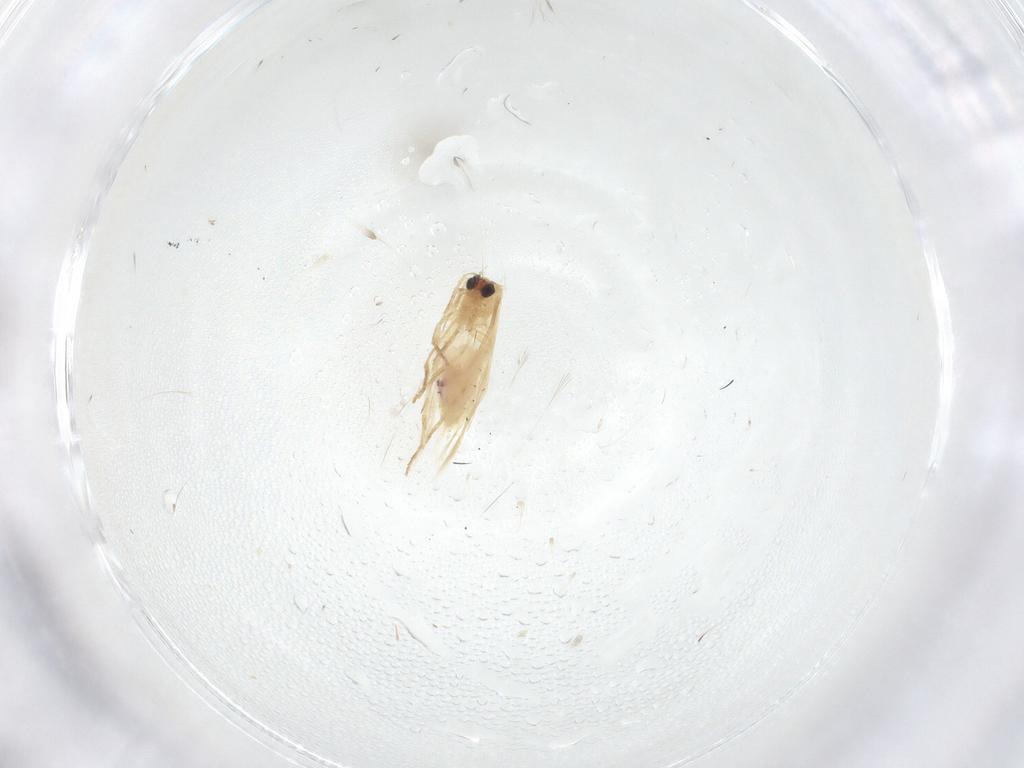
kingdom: Animalia
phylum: Arthropoda
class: Insecta
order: Lepidoptera
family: Nepticulidae
